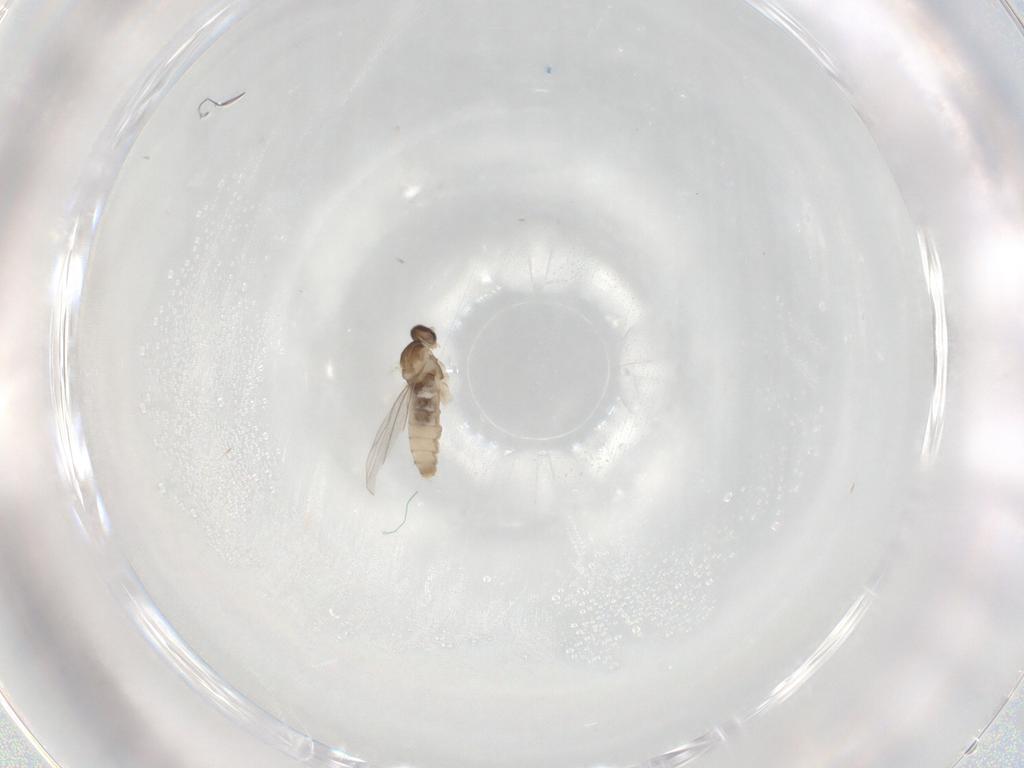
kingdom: Animalia
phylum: Arthropoda
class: Insecta
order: Diptera
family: Cecidomyiidae
